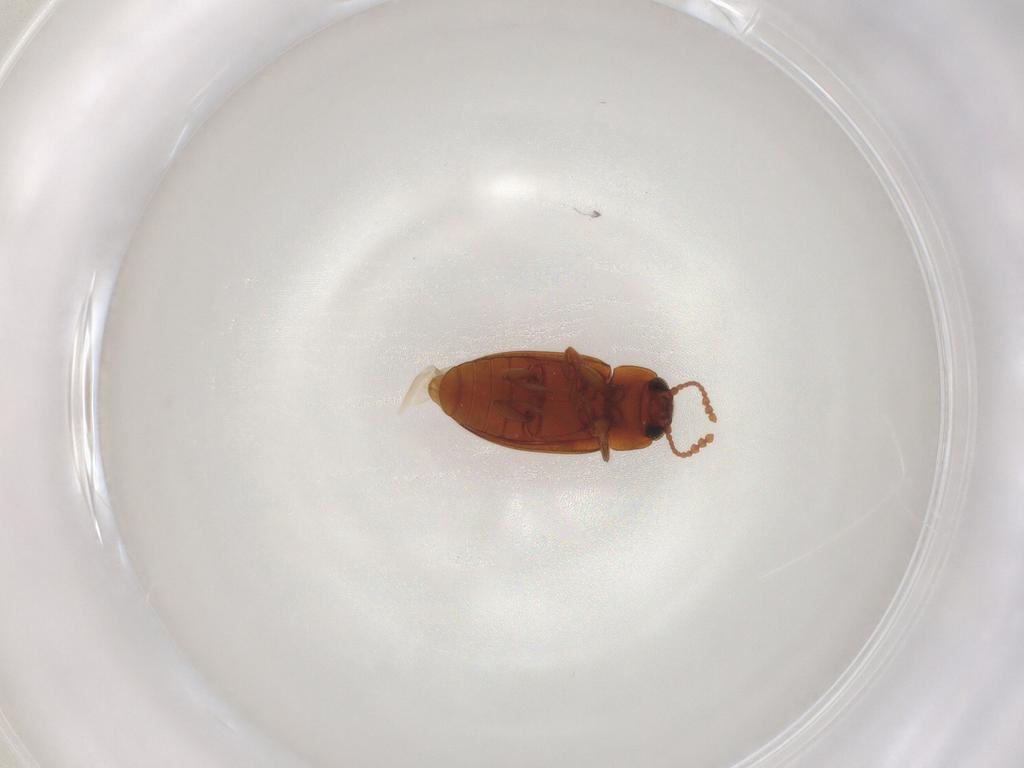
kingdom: Animalia
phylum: Arthropoda
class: Insecta
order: Coleoptera
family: Erotylidae
